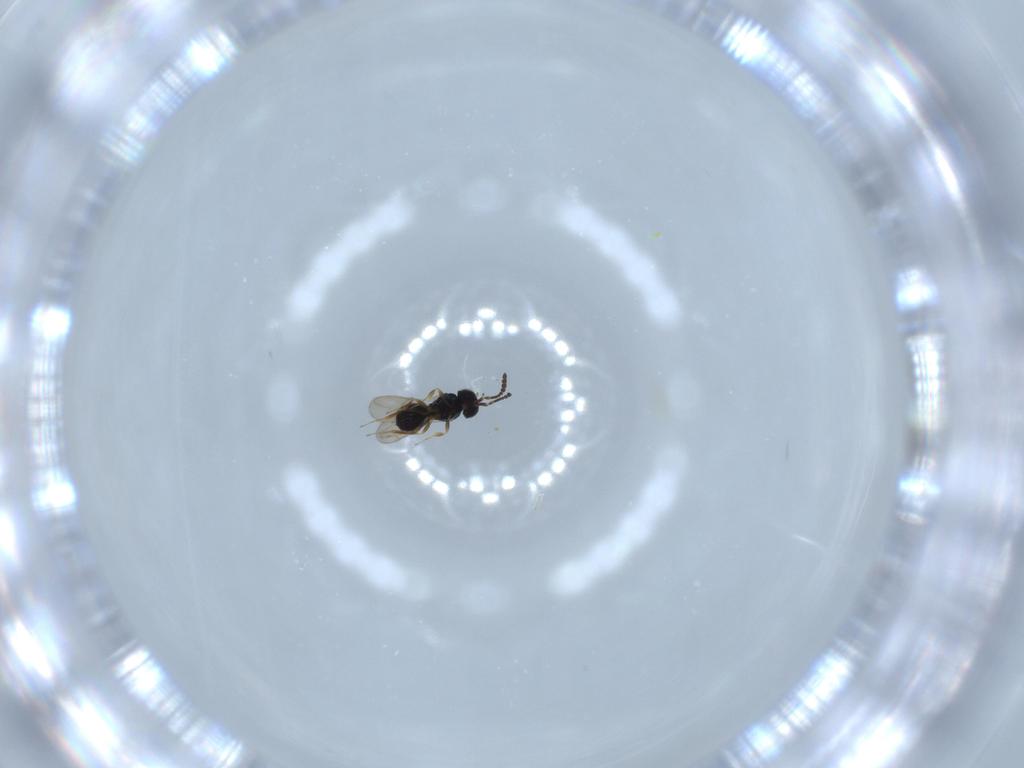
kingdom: Animalia
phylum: Arthropoda
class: Insecta
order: Hymenoptera
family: Scelionidae
